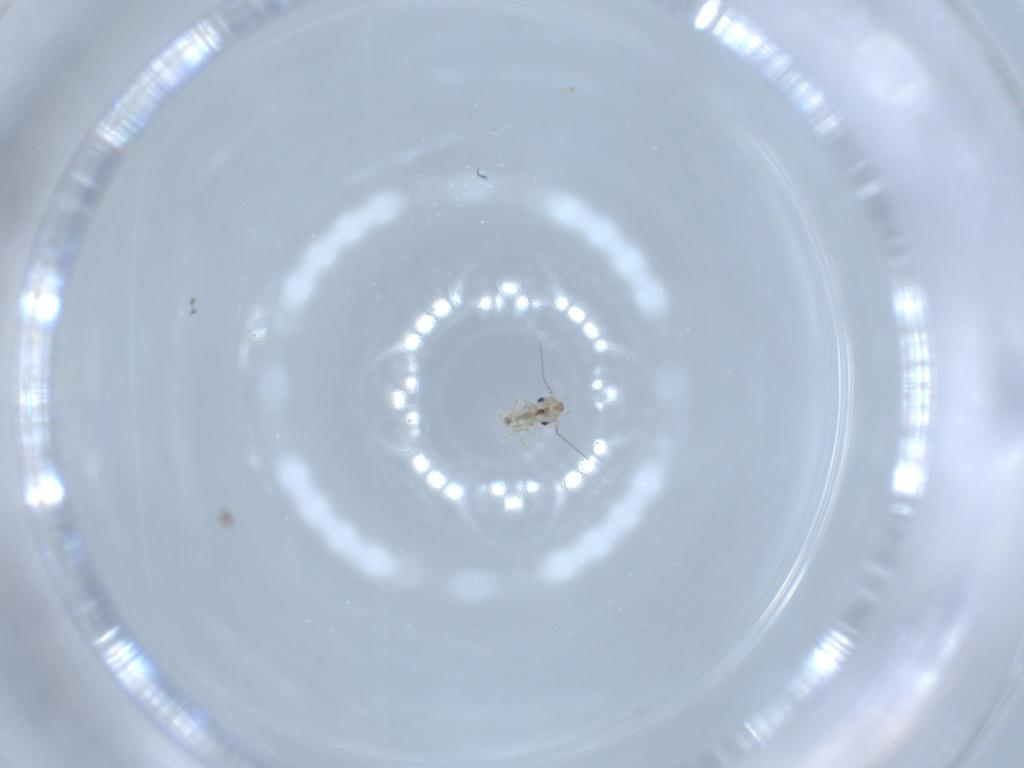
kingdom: Animalia
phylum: Arthropoda
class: Insecta
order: Psocodea
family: Lepidopsocidae
